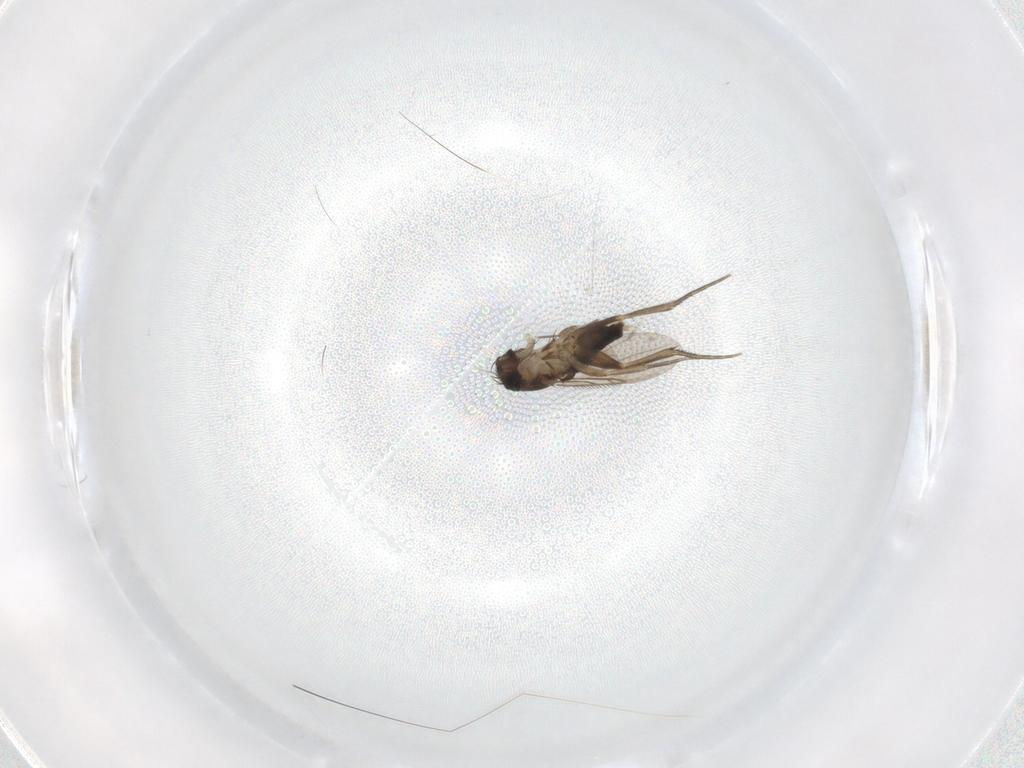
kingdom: Animalia
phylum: Arthropoda
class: Insecta
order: Diptera
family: Phoridae
